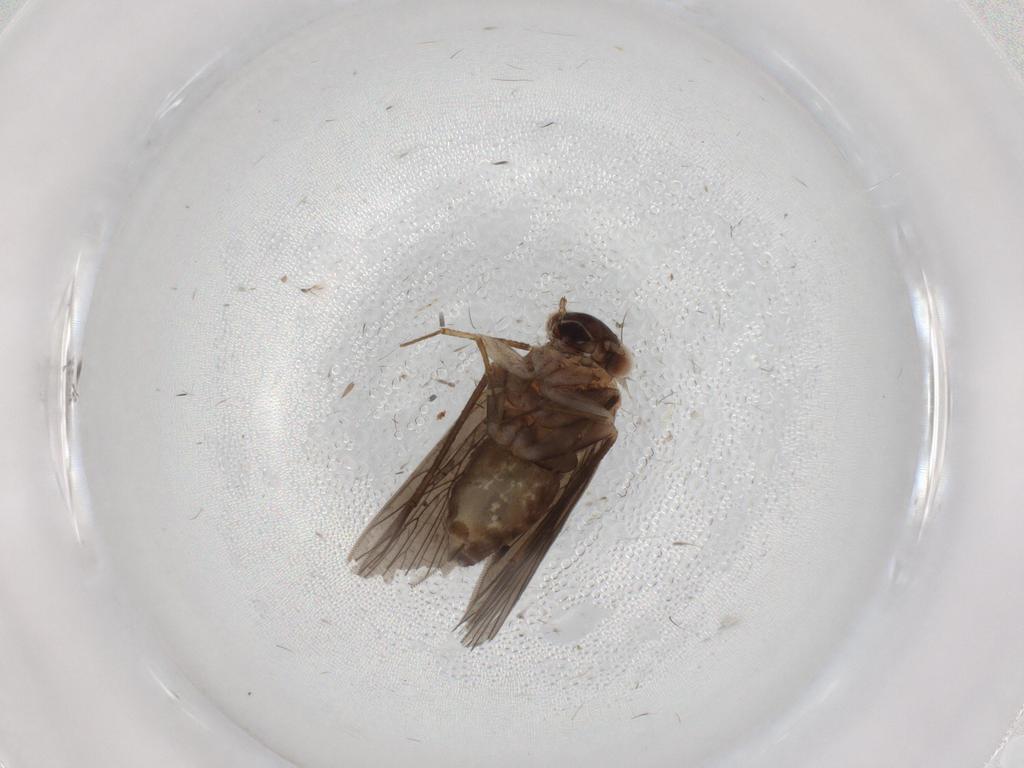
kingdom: Animalia
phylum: Arthropoda
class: Insecta
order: Psocodea
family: Lepidopsocidae
